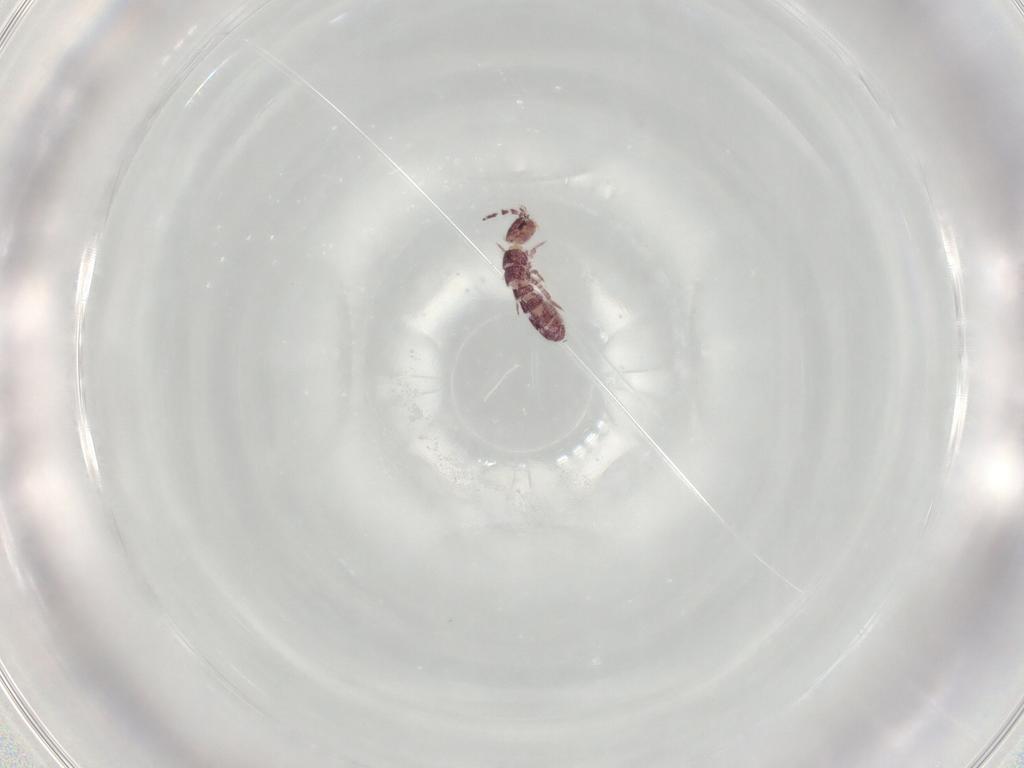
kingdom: Animalia
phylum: Arthropoda
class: Collembola
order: Entomobryomorpha
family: Isotomidae
